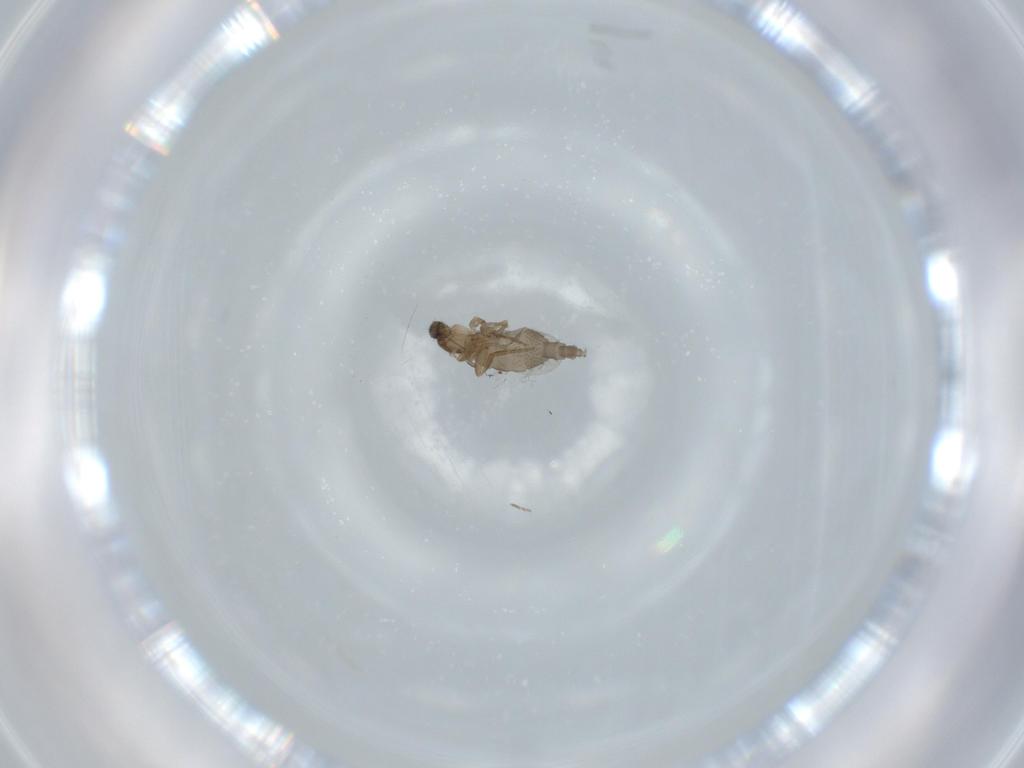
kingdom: Animalia
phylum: Arthropoda
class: Insecta
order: Diptera
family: Phoridae
